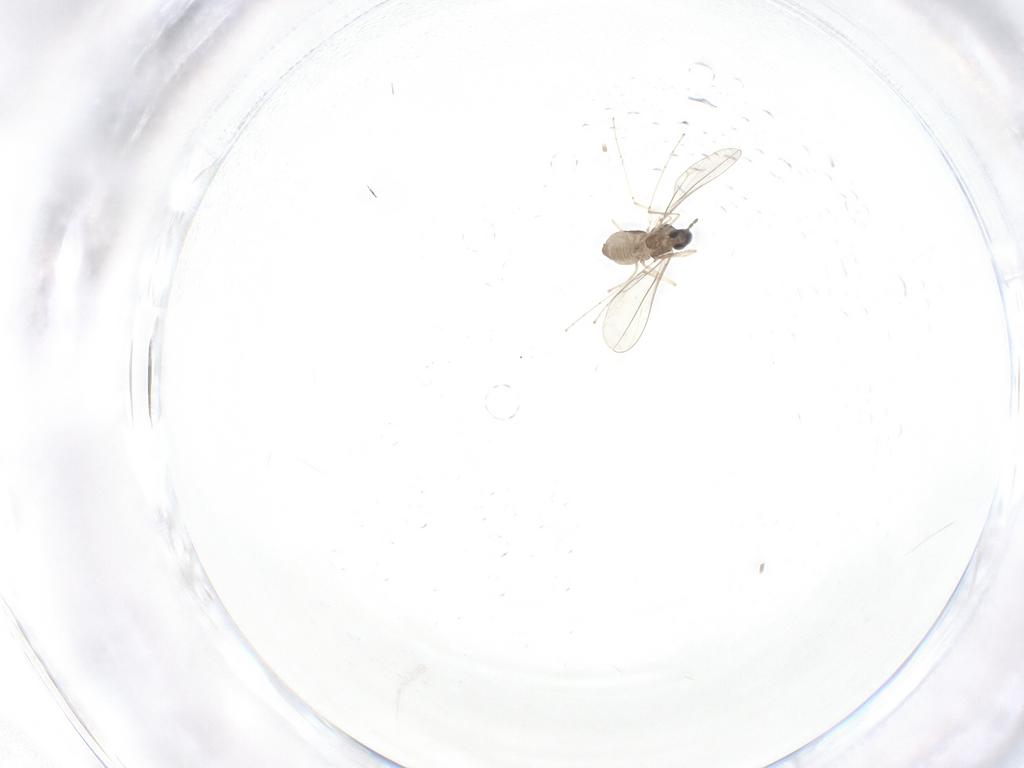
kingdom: Animalia
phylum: Arthropoda
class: Insecta
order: Diptera
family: Cecidomyiidae
